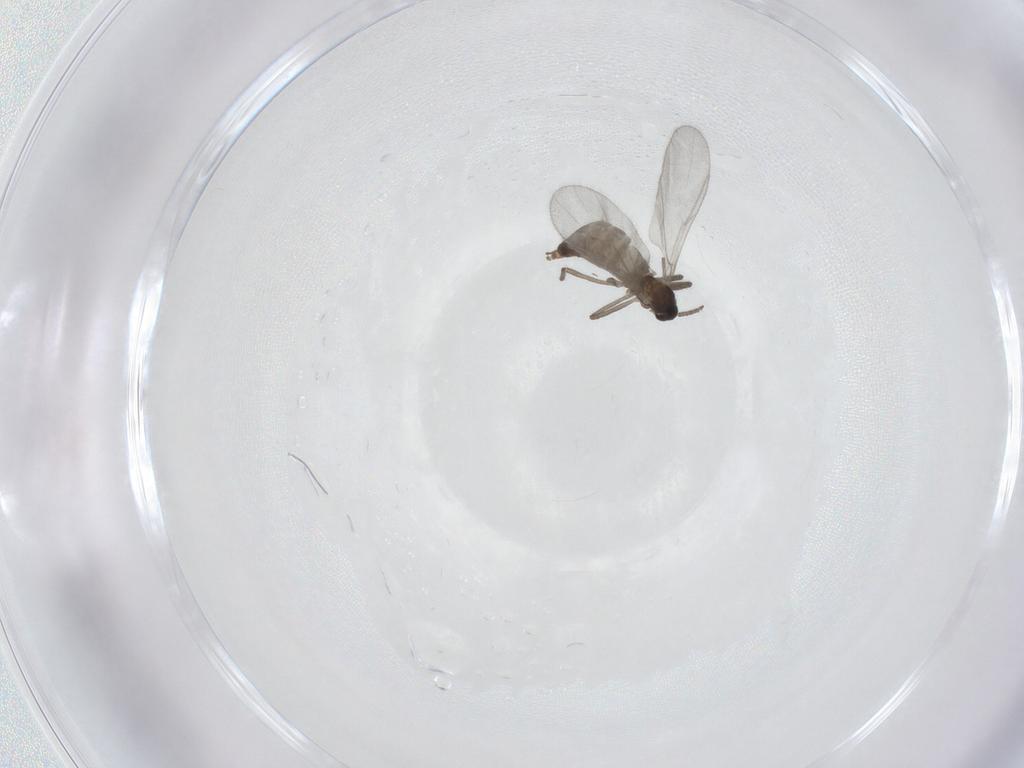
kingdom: Animalia
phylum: Arthropoda
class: Insecta
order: Diptera
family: Cecidomyiidae
